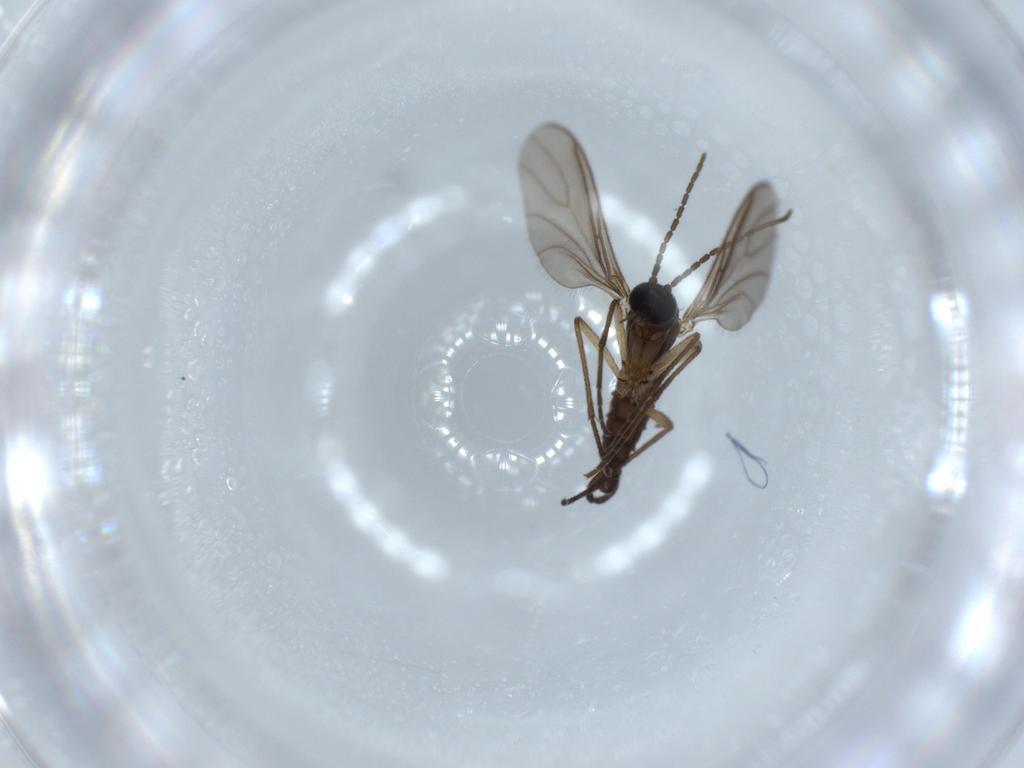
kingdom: Animalia
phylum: Arthropoda
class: Insecta
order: Diptera
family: Sciaridae
